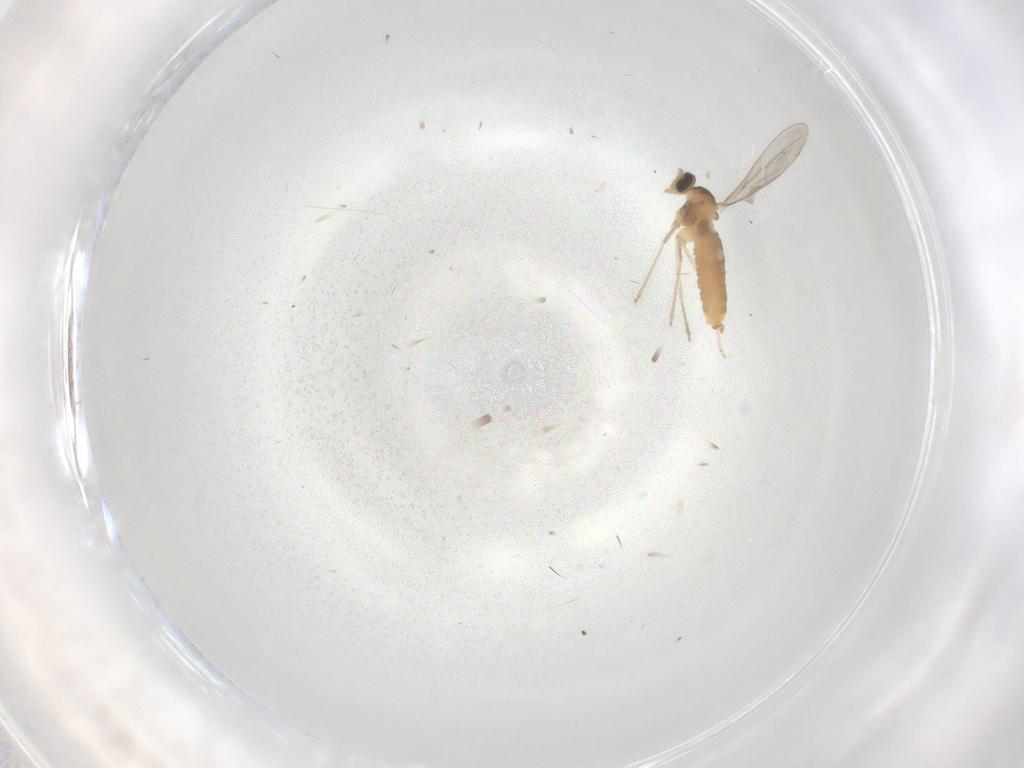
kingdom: Animalia
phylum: Arthropoda
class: Insecta
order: Diptera
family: Cecidomyiidae
